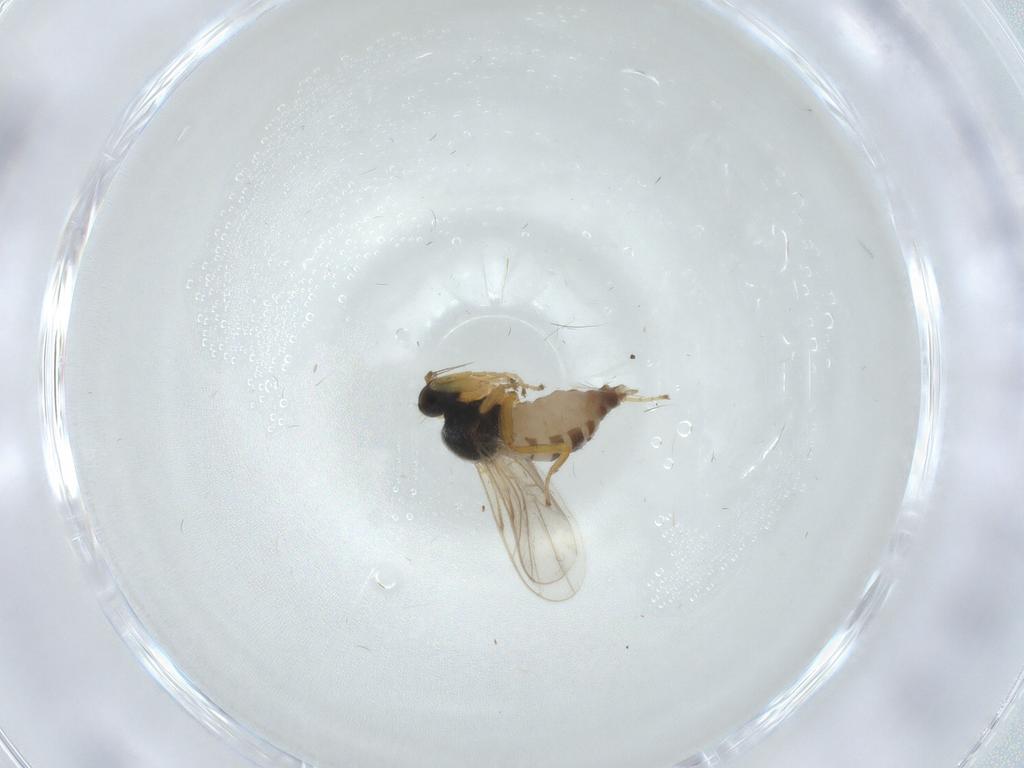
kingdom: Animalia
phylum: Arthropoda
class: Insecta
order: Diptera
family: Hybotidae
